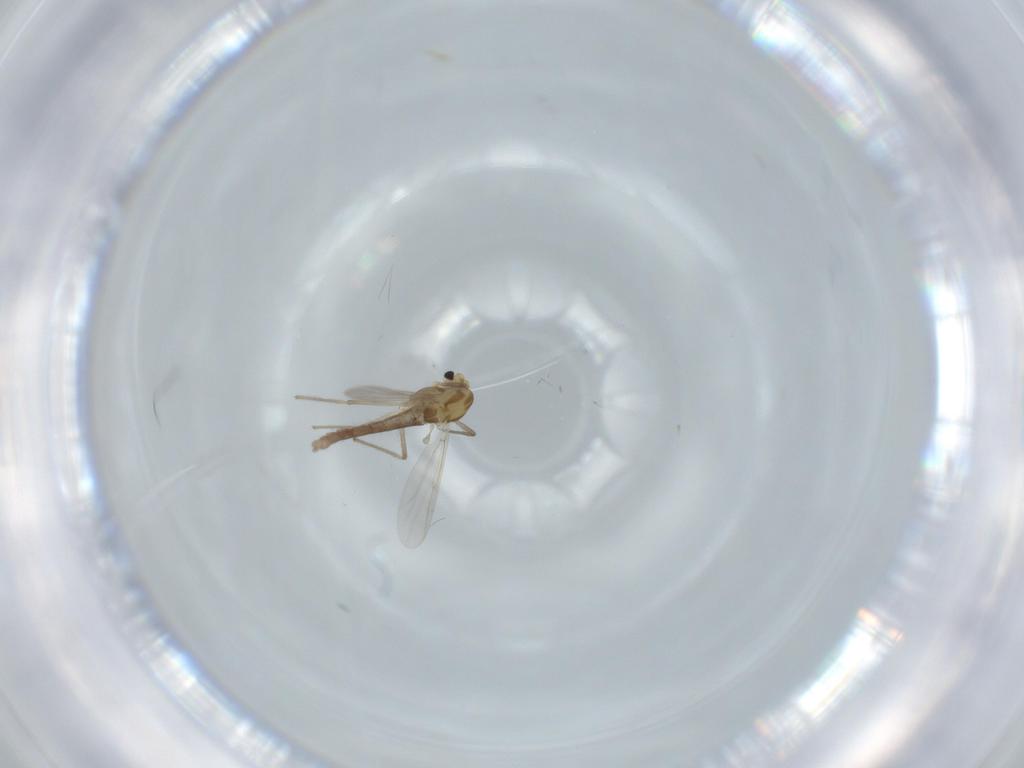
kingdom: Animalia
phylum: Arthropoda
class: Insecta
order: Diptera
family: Chironomidae
